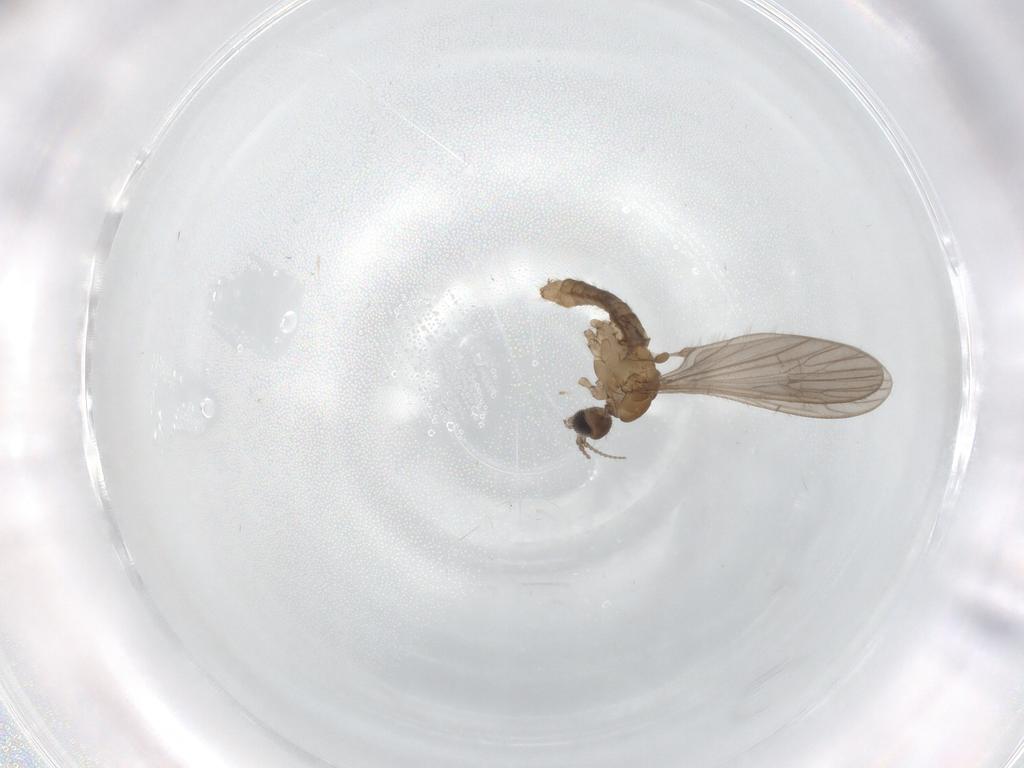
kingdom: Animalia
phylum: Arthropoda
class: Insecta
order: Diptera
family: Limoniidae
